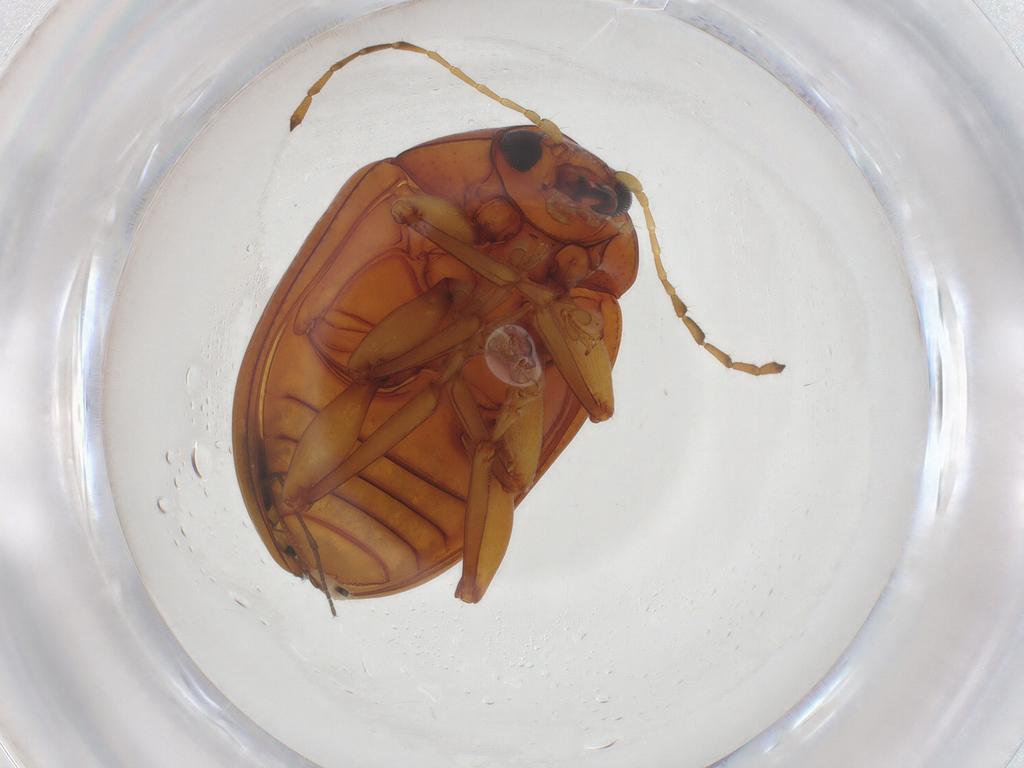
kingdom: Animalia
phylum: Arthropoda
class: Insecta
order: Coleoptera
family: Chrysomelidae
